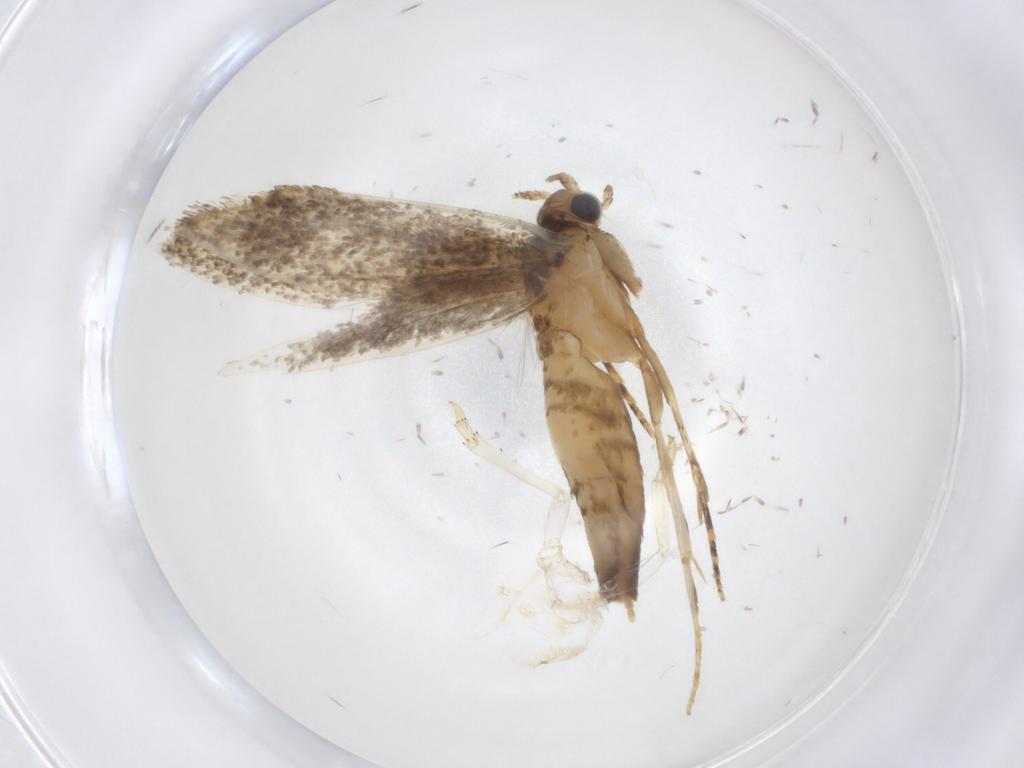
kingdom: Animalia
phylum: Arthropoda
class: Insecta
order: Lepidoptera
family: Tineidae
